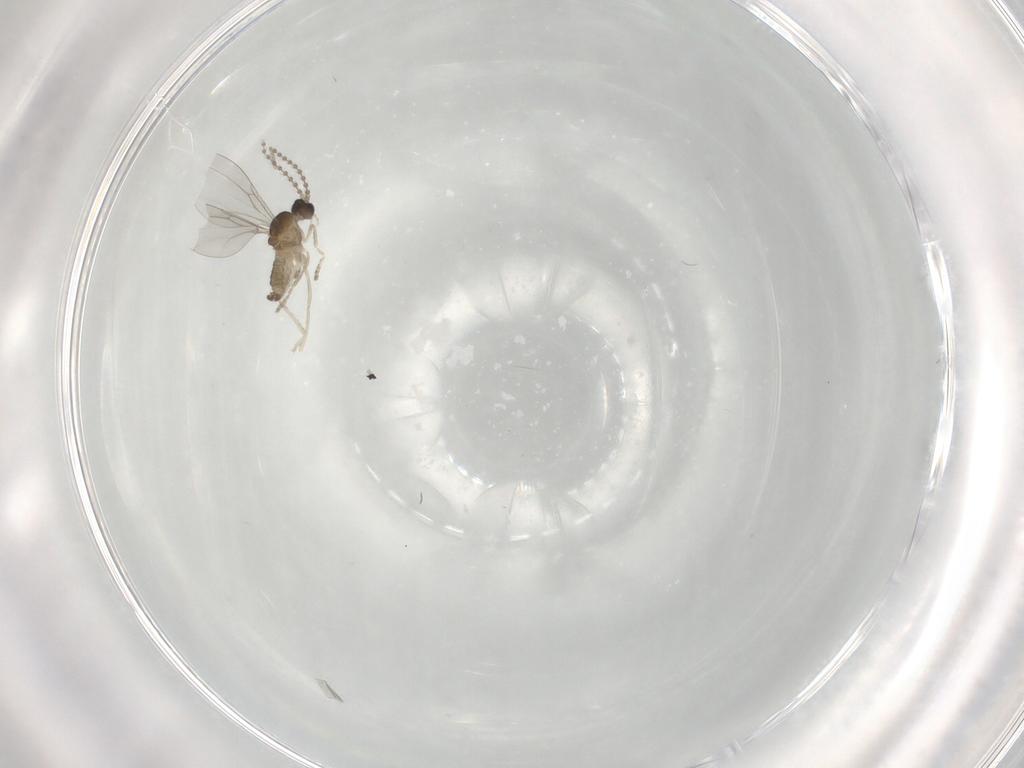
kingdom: Animalia
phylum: Arthropoda
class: Insecta
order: Diptera
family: Cecidomyiidae
